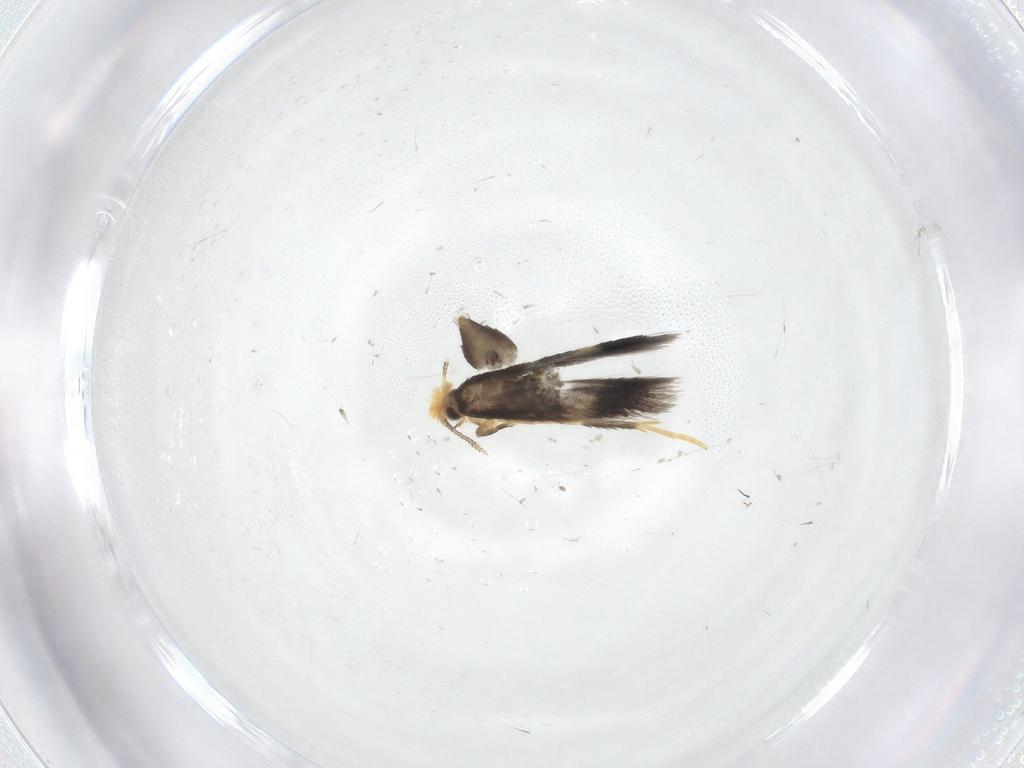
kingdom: Animalia
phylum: Arthropoda
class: Insecta
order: Lepidoptera
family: Nepticulidae
